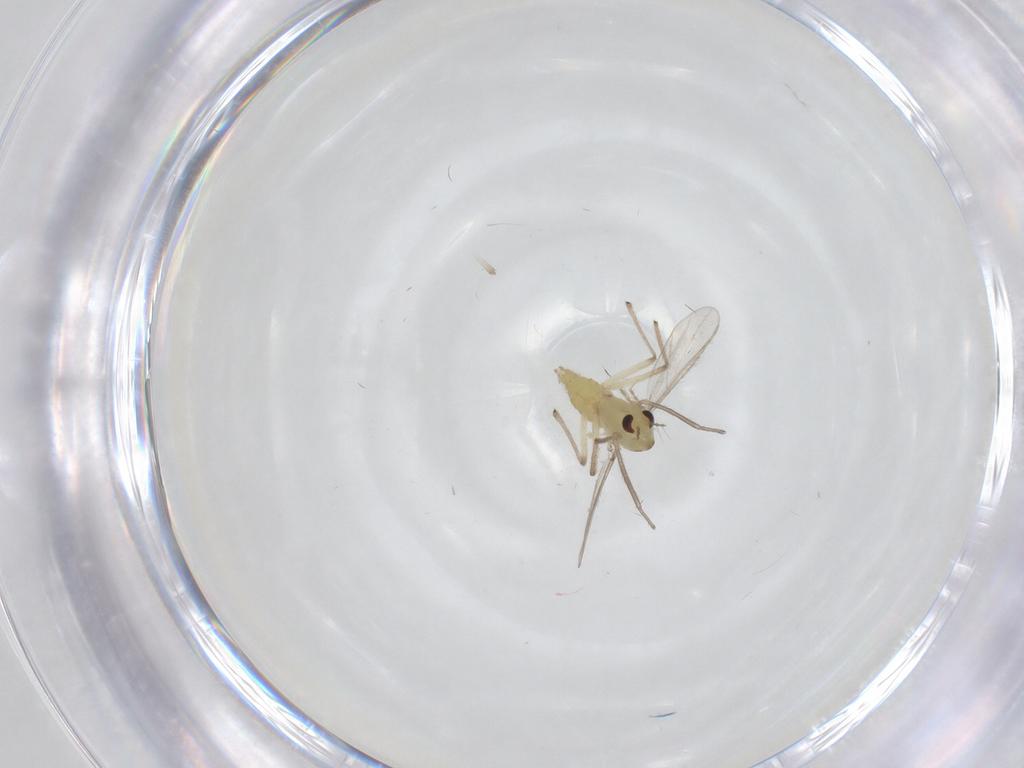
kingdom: Animalia
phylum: Arthropoda
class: Insecta
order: Diptera
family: Chironomidae
